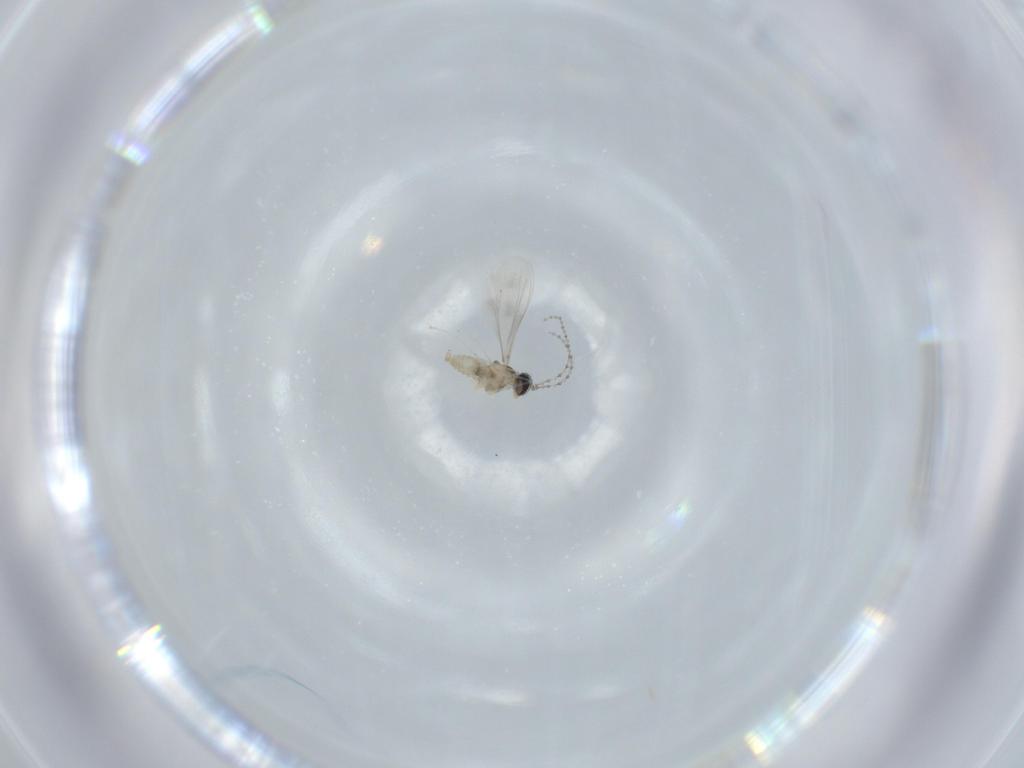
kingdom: Animalia
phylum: Arthropoda
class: Insecta
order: Diptera
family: Cecidomyiidae
